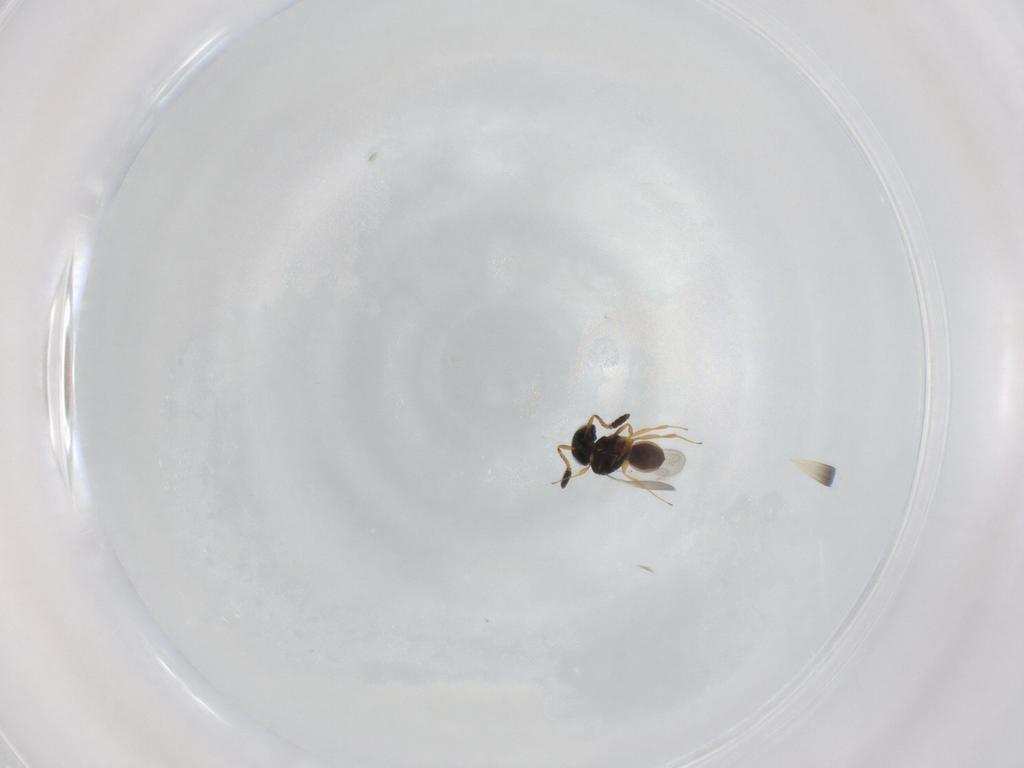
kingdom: Animalia
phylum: Arthropoda
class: Insecta
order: Hymenoptera
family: Scelionidae
